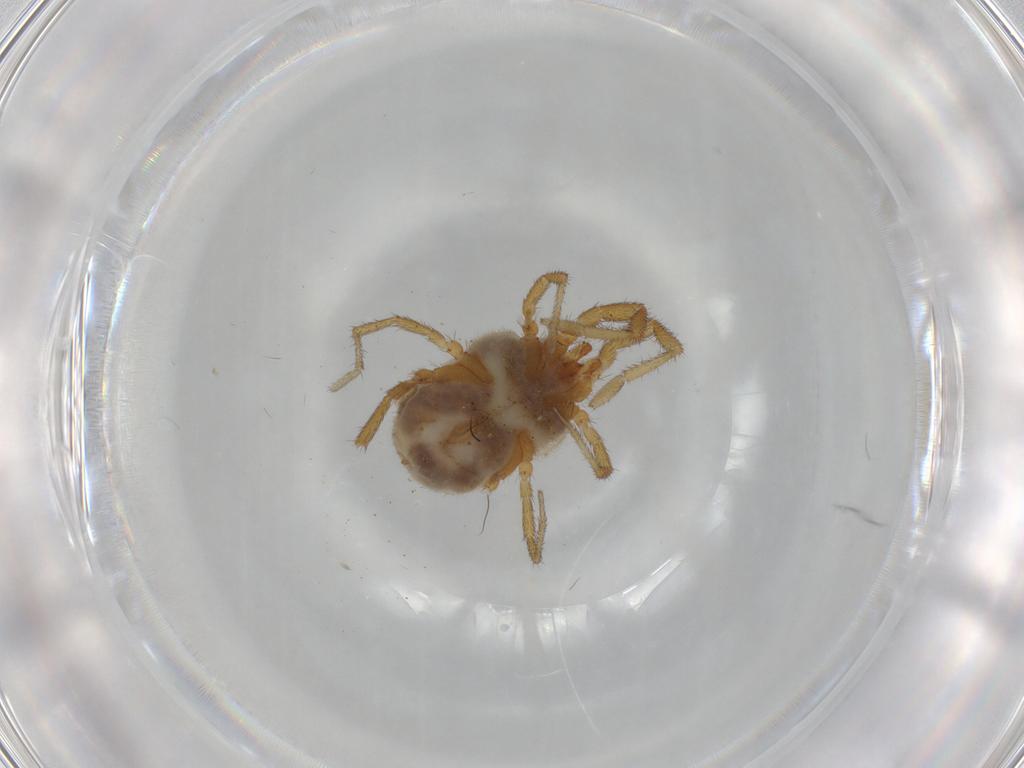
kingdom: Animalia
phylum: Arthropoda
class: Arachnida
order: Trombidiformes
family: Erythraeidae
